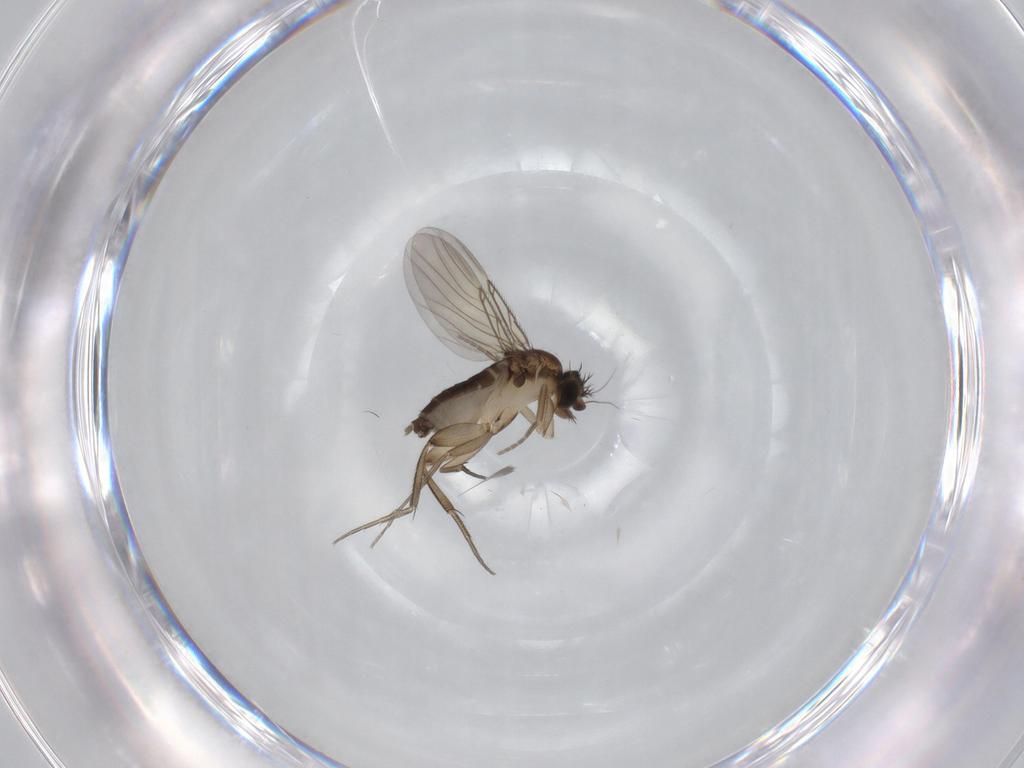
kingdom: Animalia
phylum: Arthropoda
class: Insecta
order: Diptera
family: Phoridae
